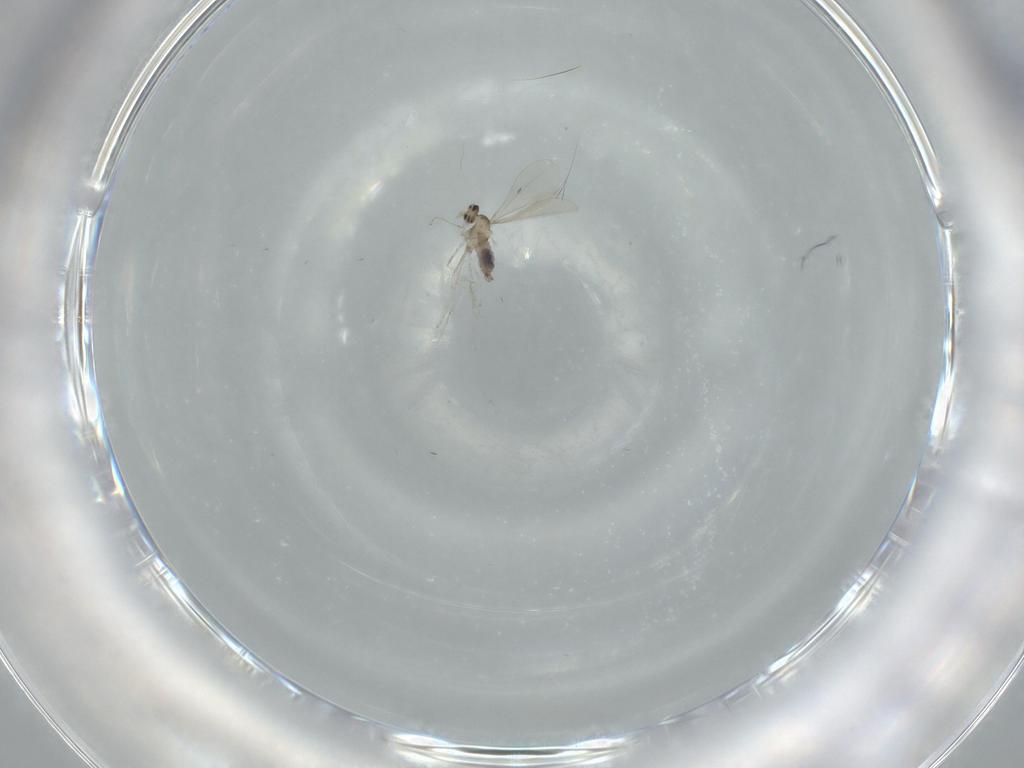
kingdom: Animalia
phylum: Arthropoda
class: Insecta
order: Diptera
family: Cecidomyiidae
